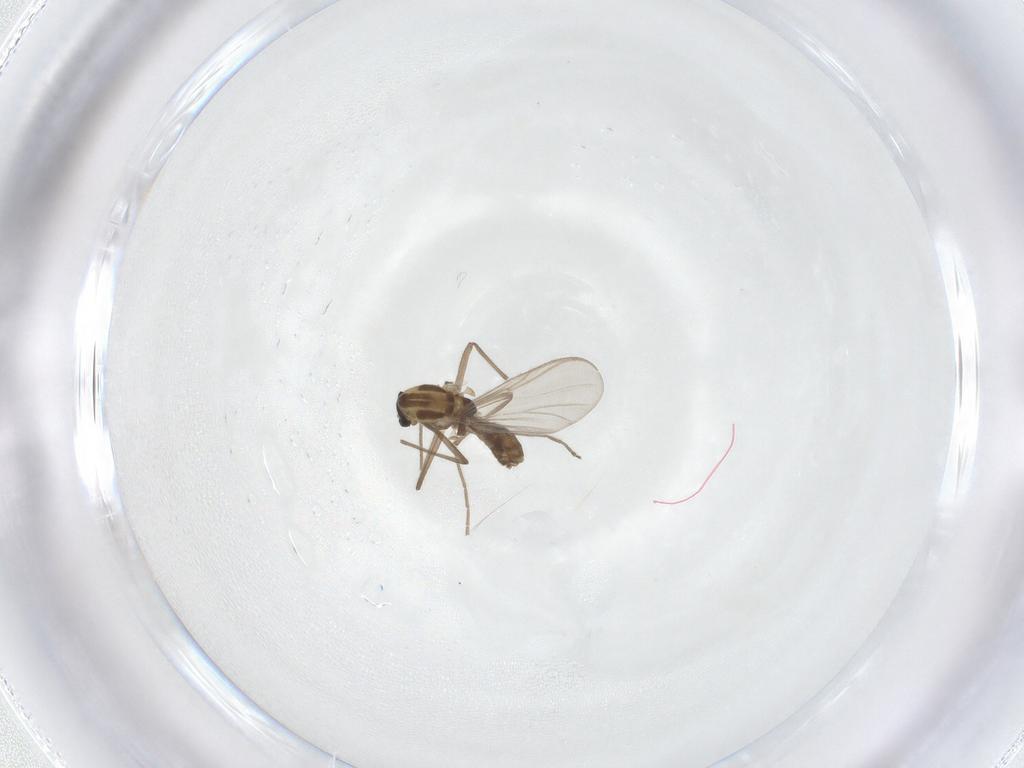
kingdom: Animalia
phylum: Arthropoda
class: Insecta
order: Diptera
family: Chironomidae
